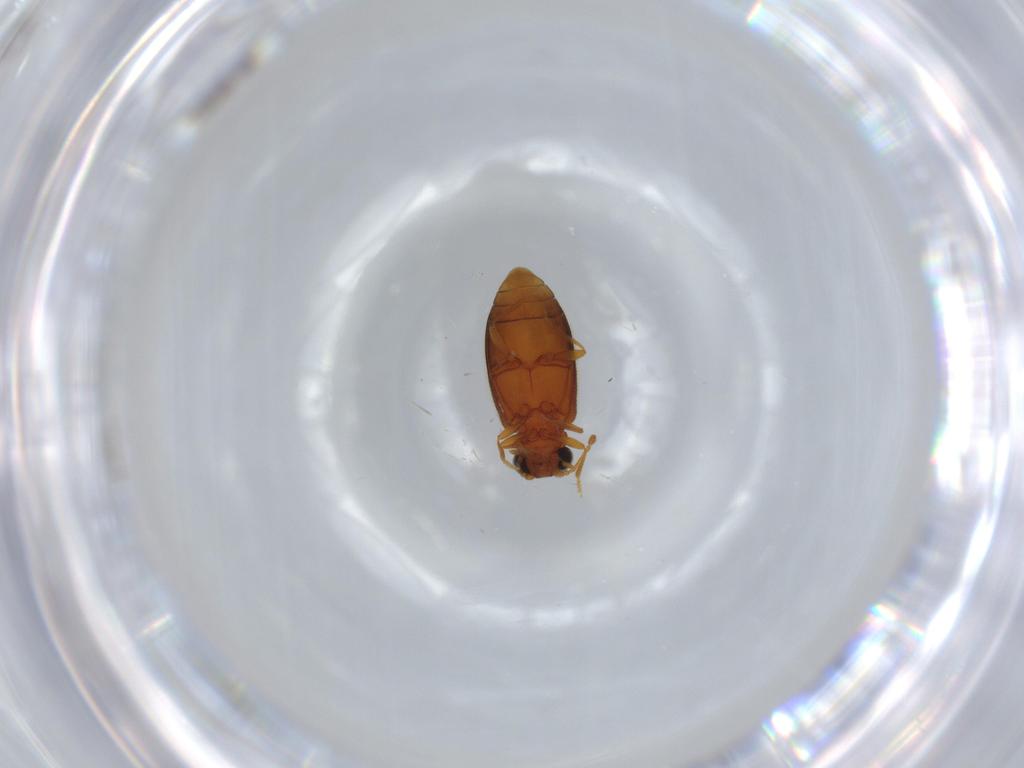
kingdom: Animalia
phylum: Arthropoda
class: Insecta
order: Coleoptera
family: Aderidae
